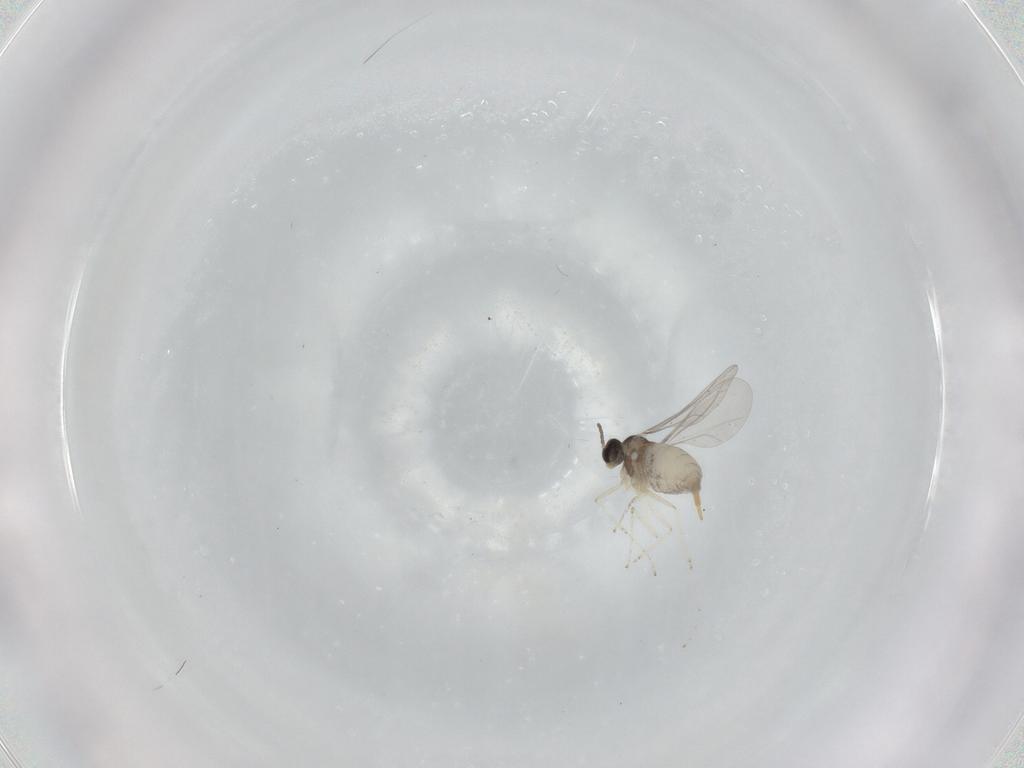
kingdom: Animalia
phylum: Arthropoda
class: Insecta
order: Diptera
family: Cecidomyiidae
